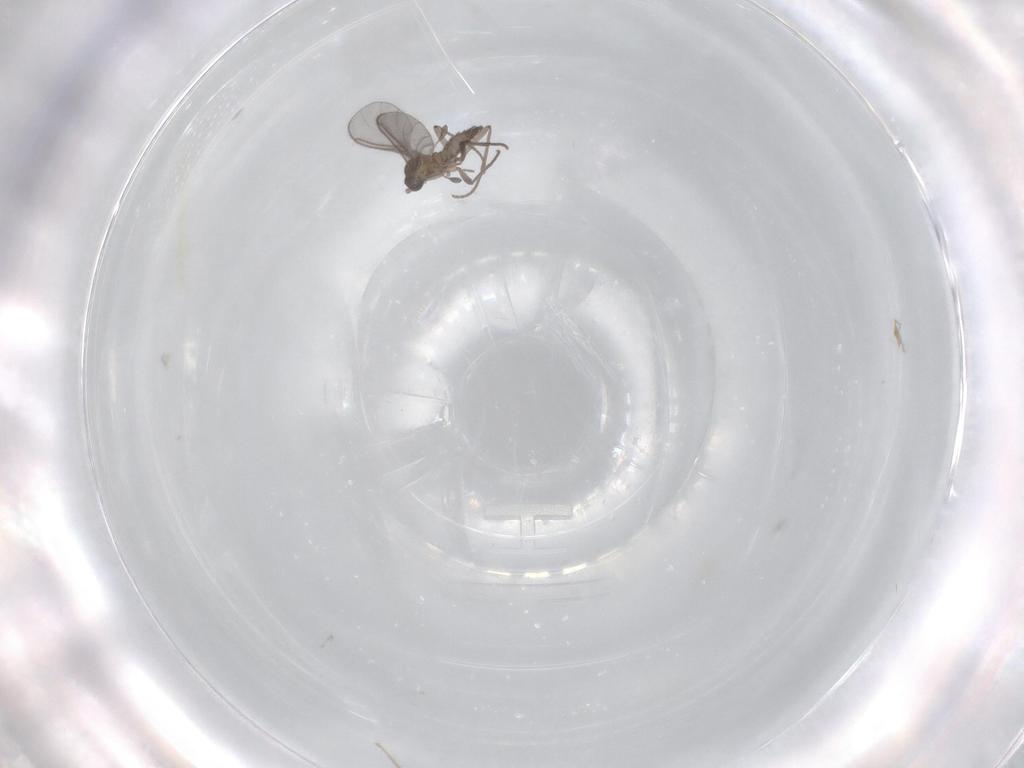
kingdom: Animalia
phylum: Arthropoda
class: Insecta
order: Diptera
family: Sciaridae
